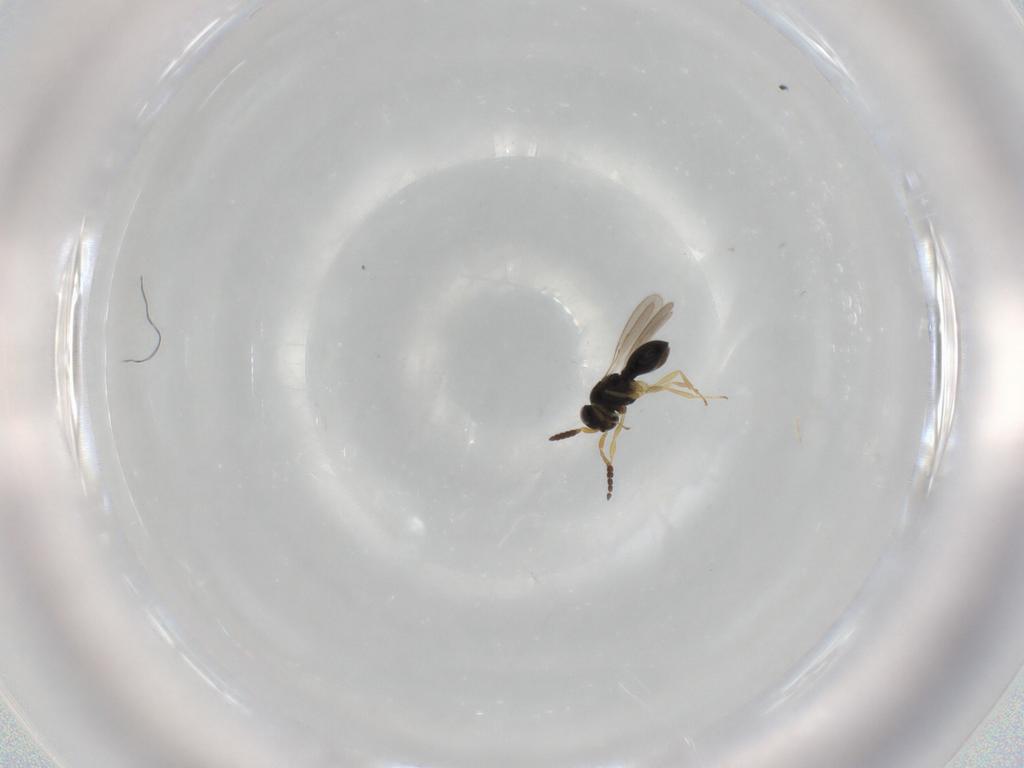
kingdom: Animalia
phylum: Arthropoda
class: Insecta
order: Hymenoptera
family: Scelionidae
